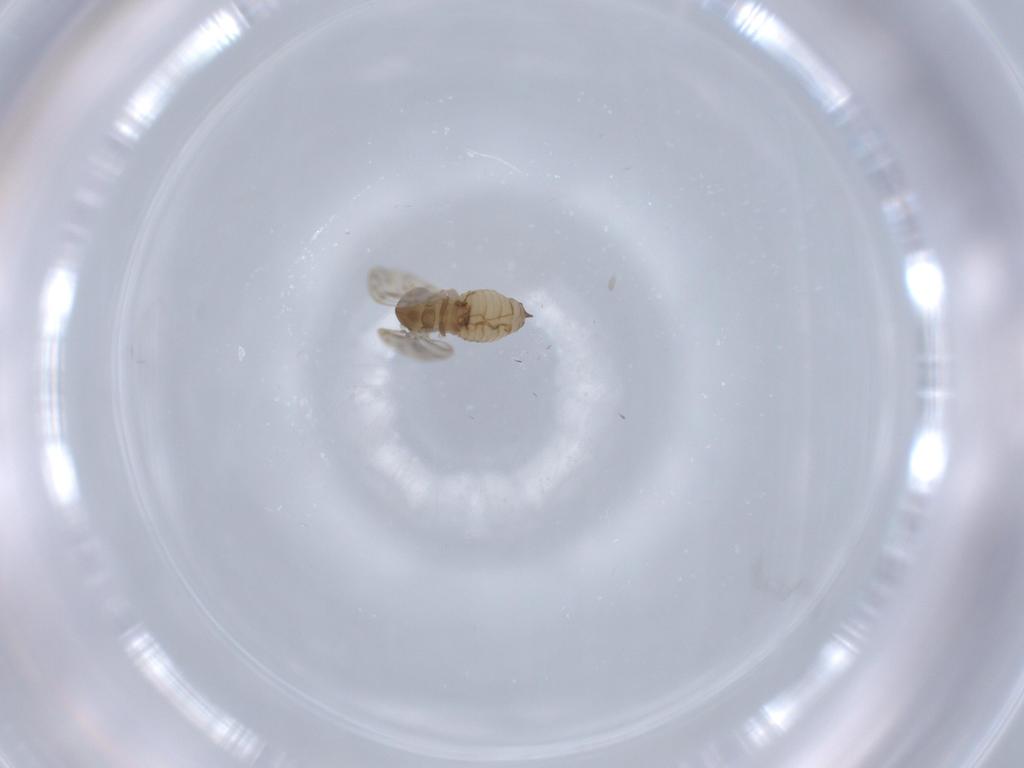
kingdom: Animalia
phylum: Arthropoda
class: Insecta
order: Diptera
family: Psychodidae
